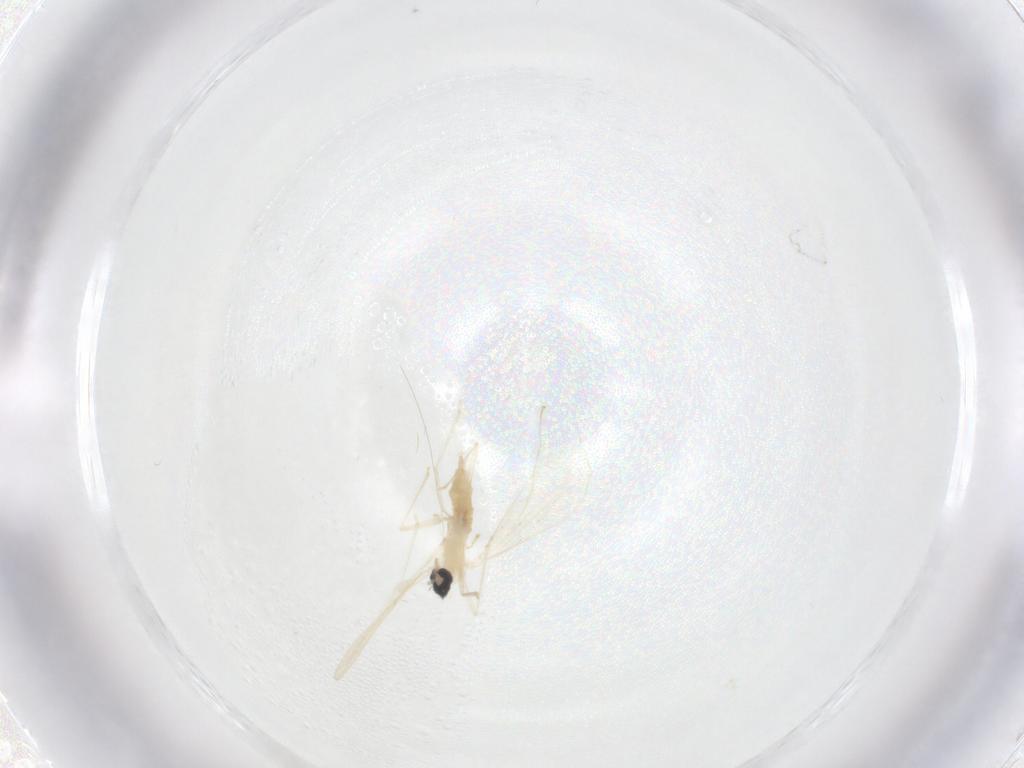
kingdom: Animalia
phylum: Arthropoda
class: Insecta
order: Diptera
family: Cecidomyiidae
